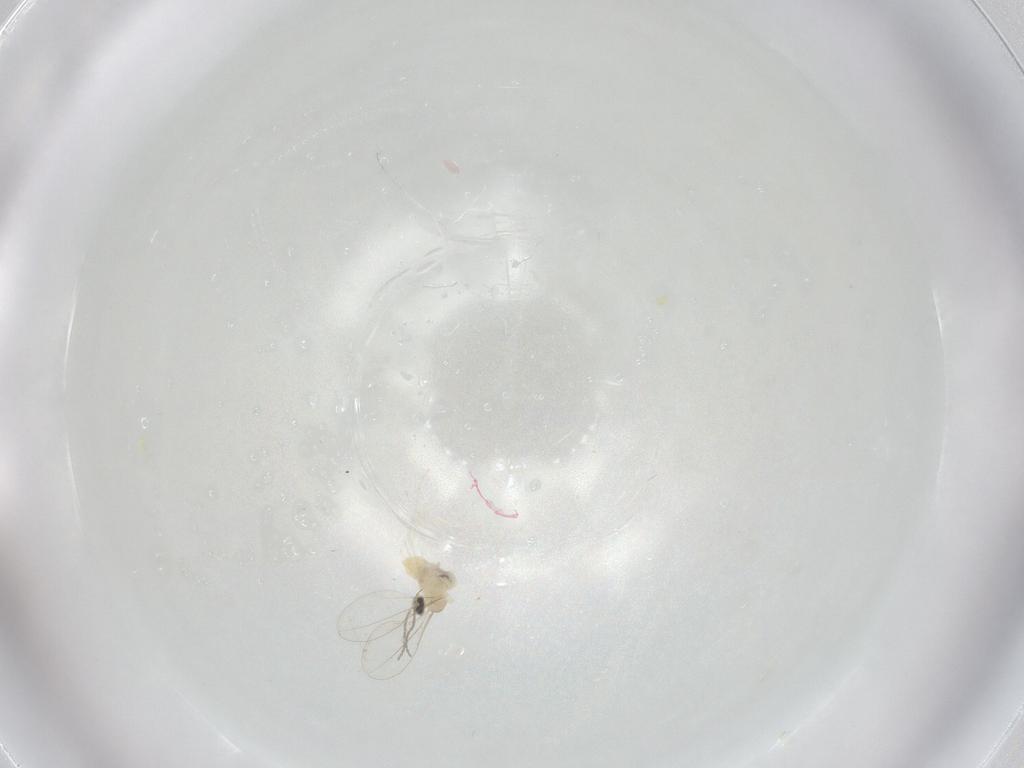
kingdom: Animalia
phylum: Arthropoda
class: Insecta
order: Diptera
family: Cecidomyiidae
